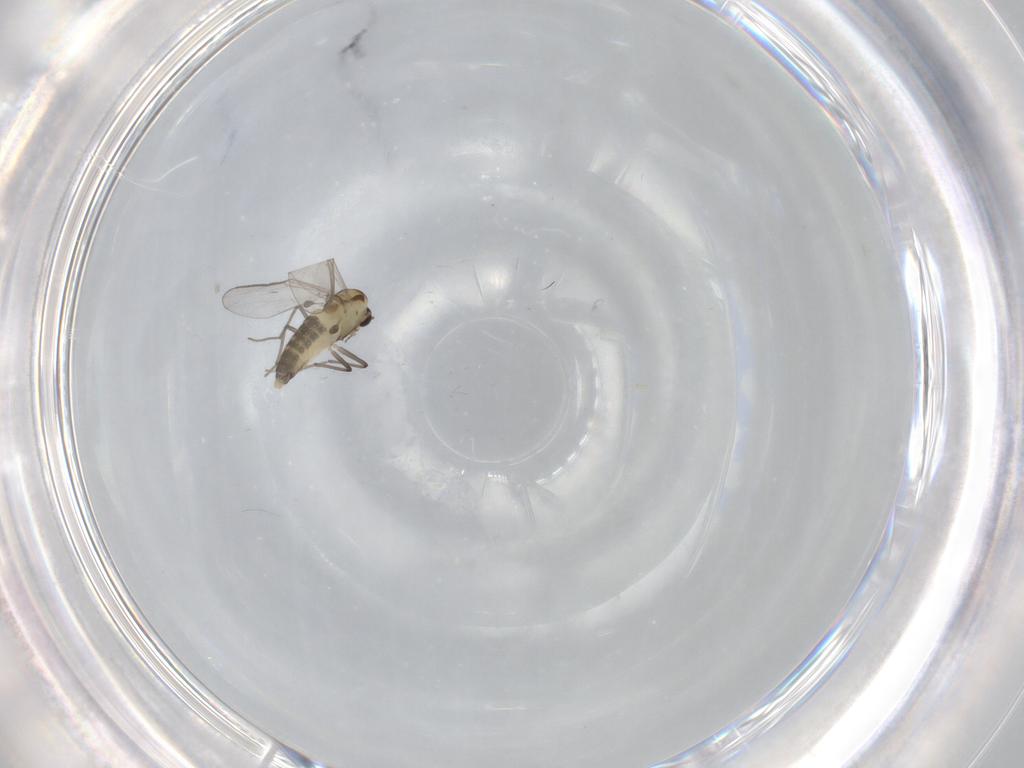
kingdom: Animalia
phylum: Arthropoda
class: Insecta
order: Diptera
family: Chironomidae
